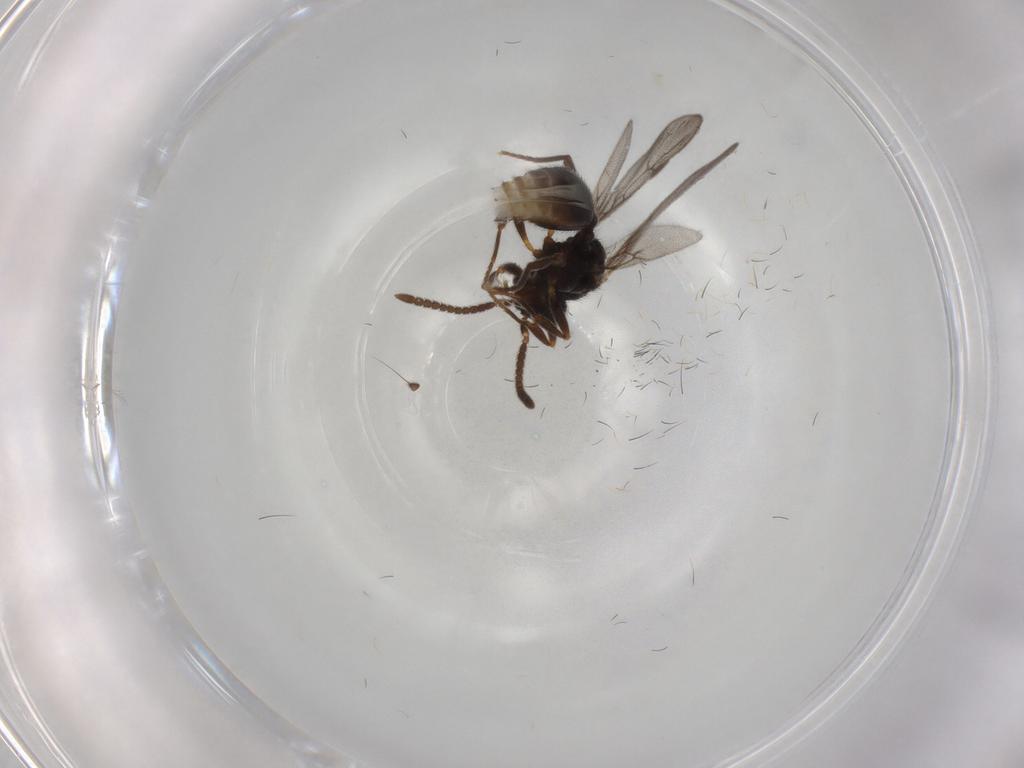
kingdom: Animalia
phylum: Arthropoda
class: Insecta
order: Hymenoptera
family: Formicidae
